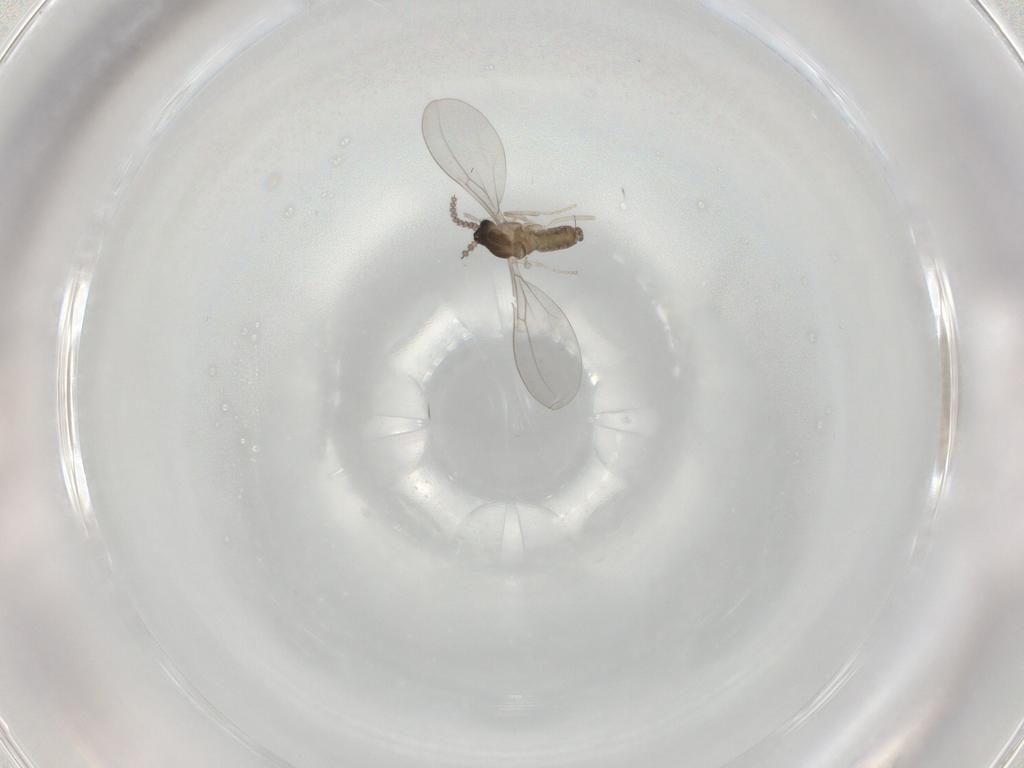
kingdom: Animalia
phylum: Arthropoda
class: Insecta
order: Diptera
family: Cecidomyiidae
